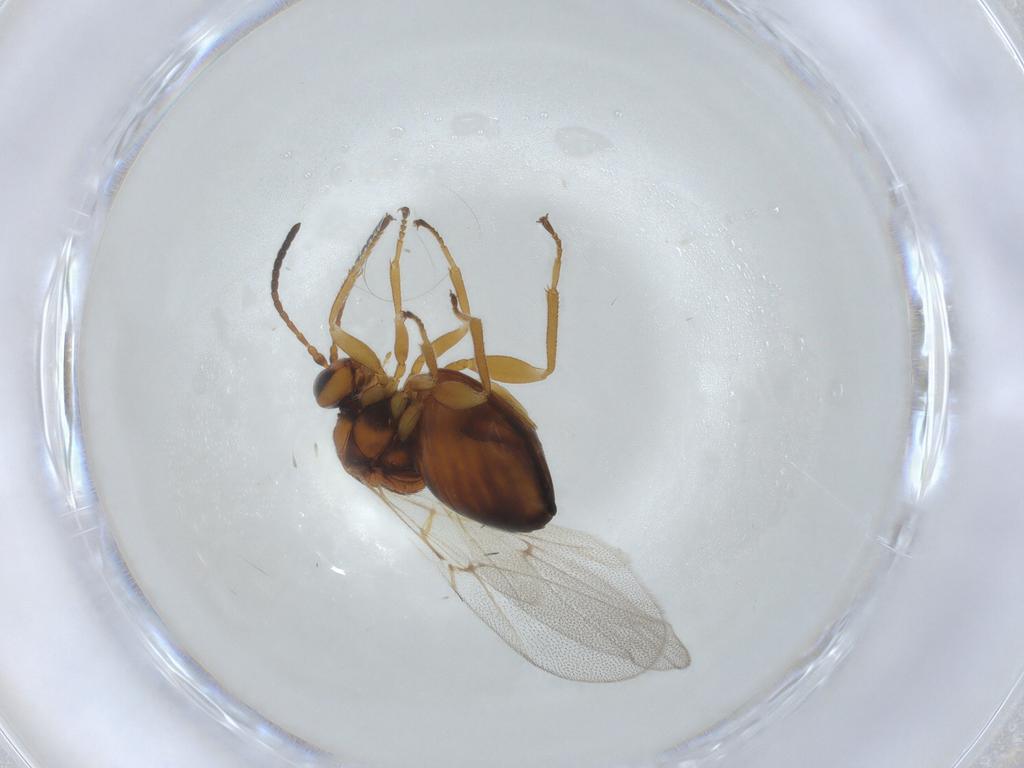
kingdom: Animalia
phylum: Arthropoda
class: Insecta
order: Hymenoptera
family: Cynipidae
